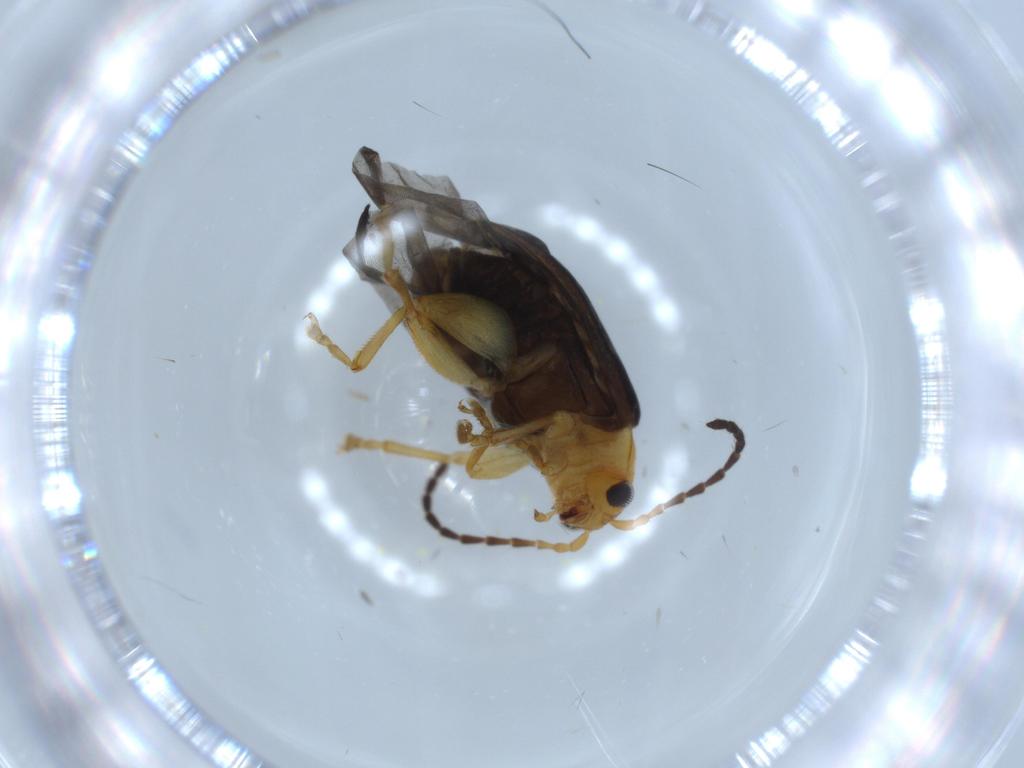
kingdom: Animalia
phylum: Arthropoda
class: Insecta
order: Coleoptera
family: Chrysomelidae
